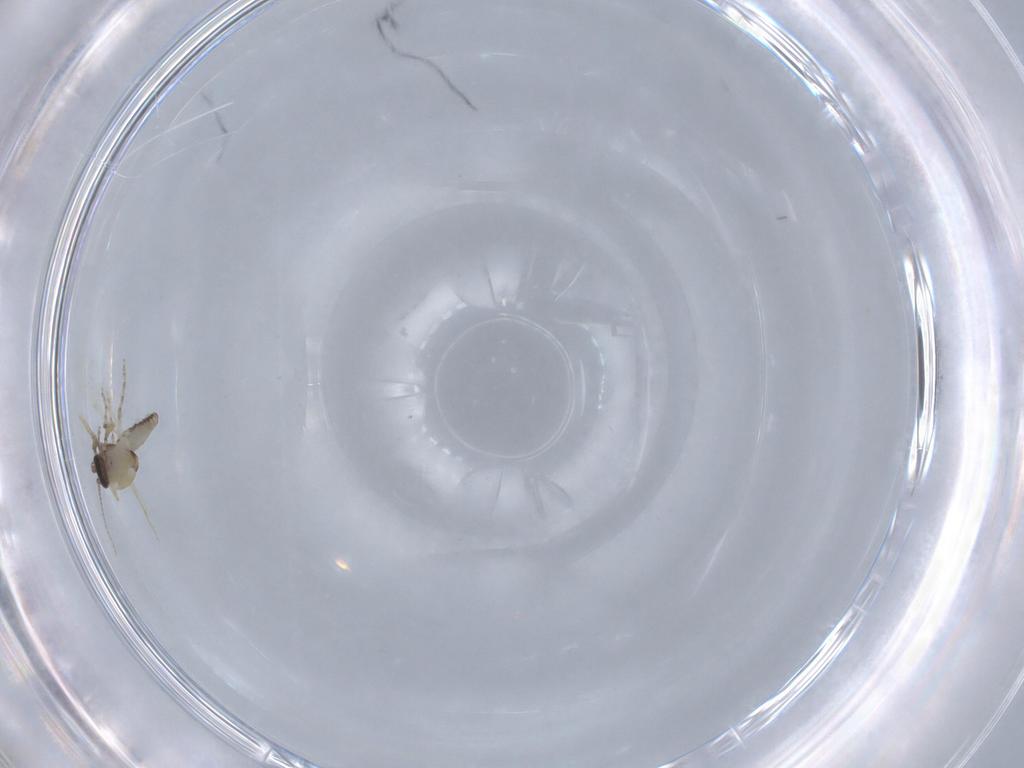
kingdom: Animalia
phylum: Arthropoda
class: Insecta
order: Diptera
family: Ceratopogonidae
